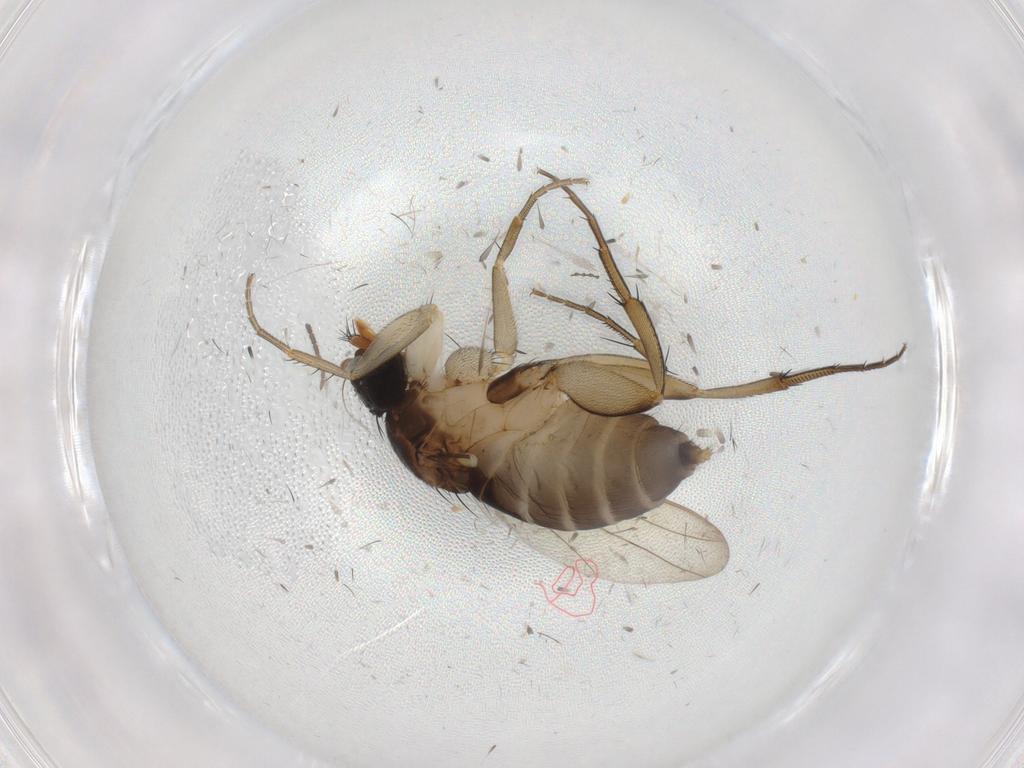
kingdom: Animalia
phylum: Arthropoda
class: Insecta
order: Diptera
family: Phoridae
